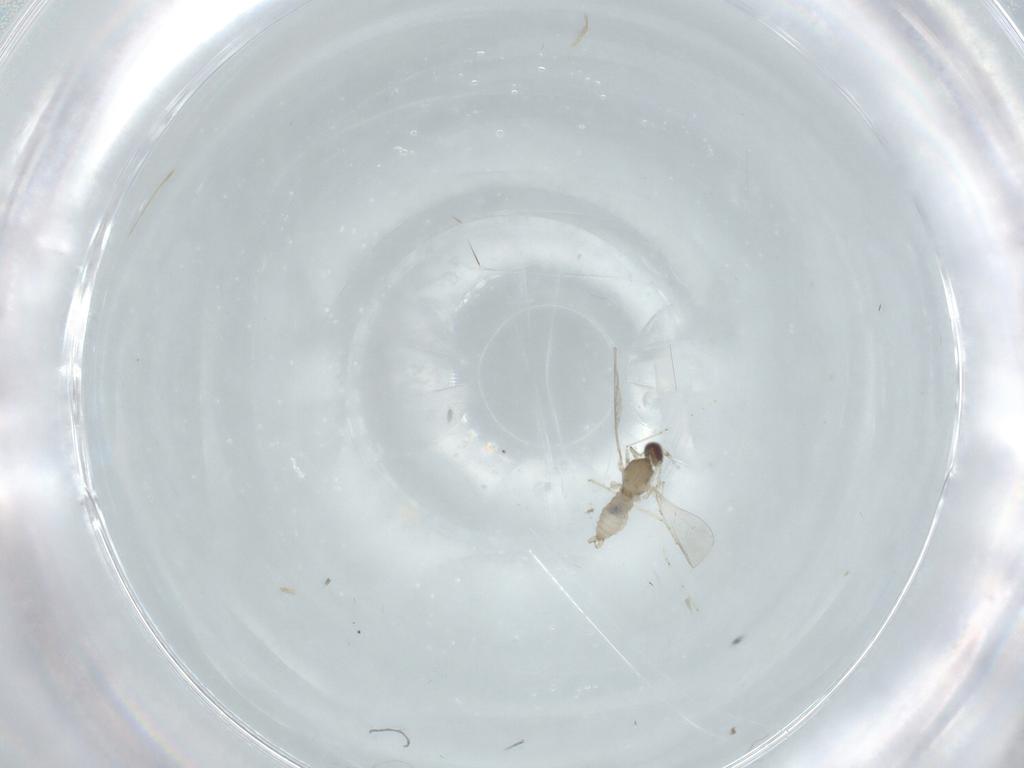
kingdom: Animalia
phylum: Arthropoda
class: Insecta
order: Diptera
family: Cecidomyiidae
